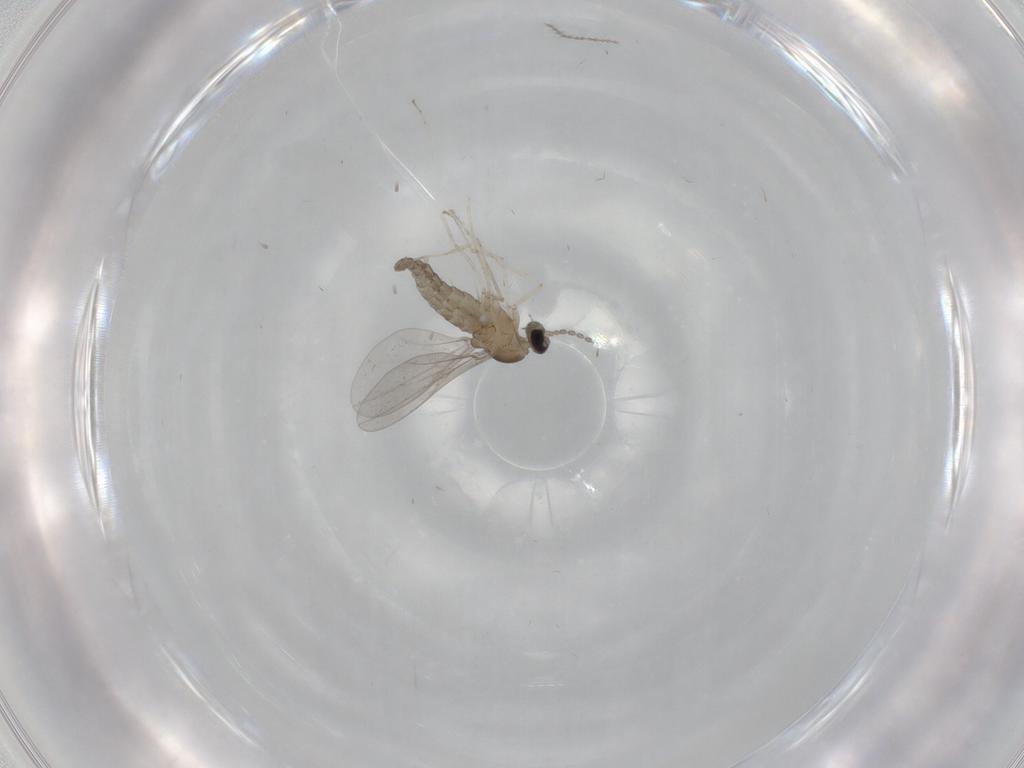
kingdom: Animalia
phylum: Arthropoda
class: Insecta
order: Diptera
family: Cecidomyiidae
